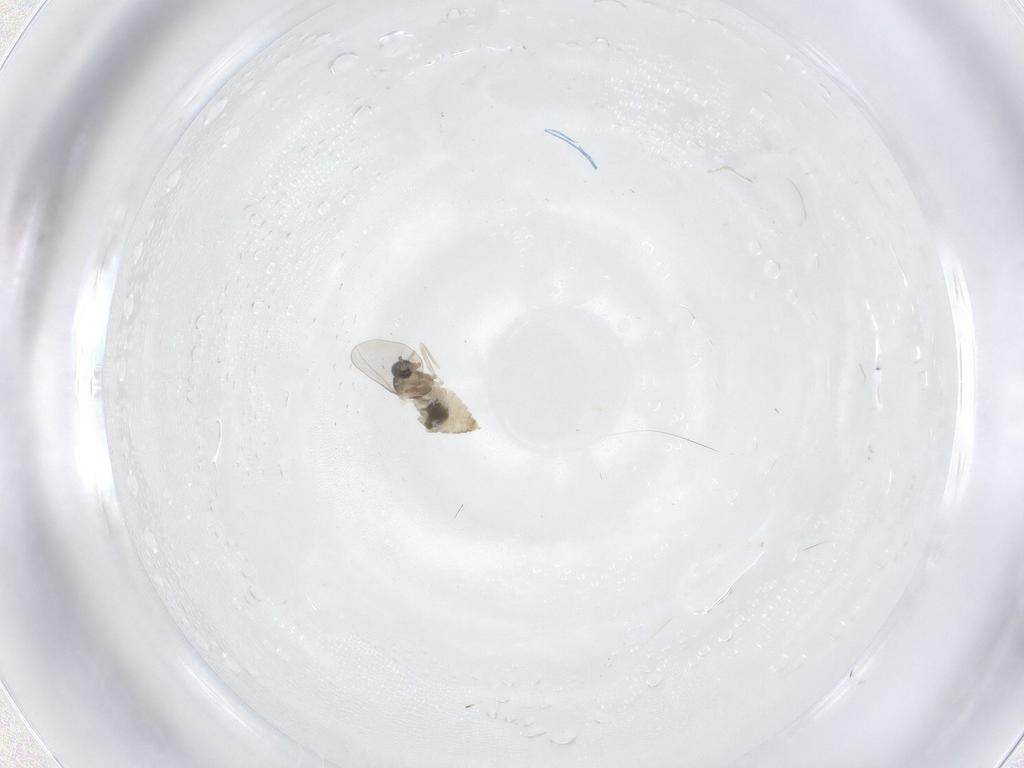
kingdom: Animalia
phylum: Arthropoda
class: Insecta
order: Diptera
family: Cecidomyiidae
